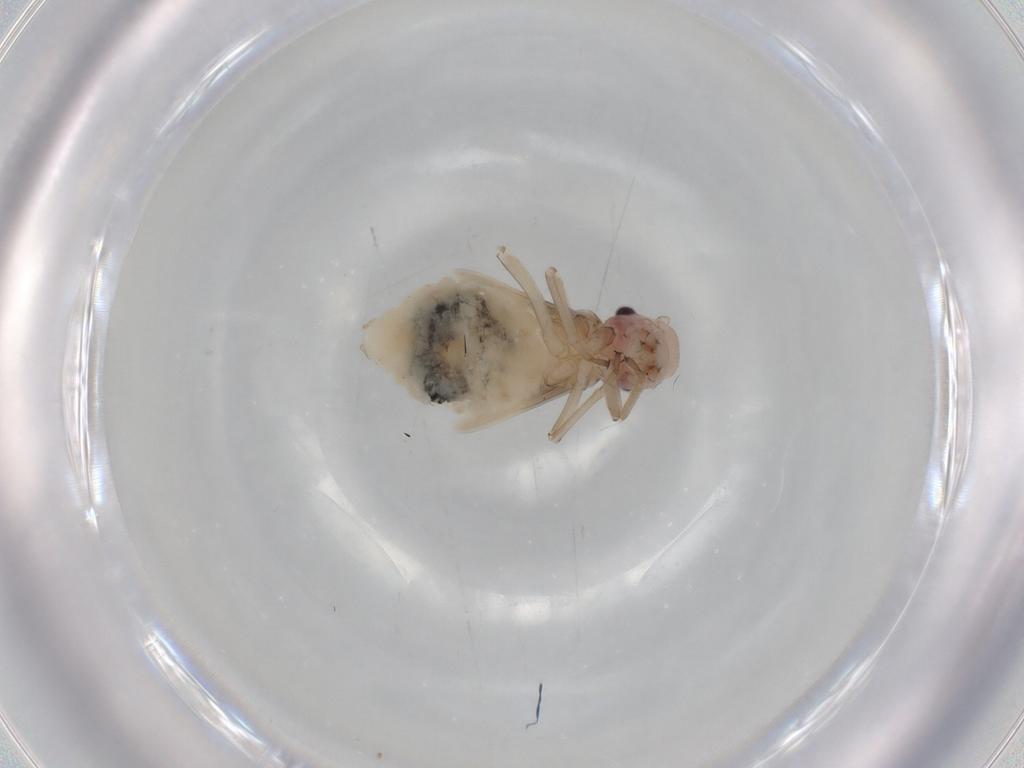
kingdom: Animalia
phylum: Arthropoda
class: Insecta
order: Psocodea
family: Stenopsocidae
